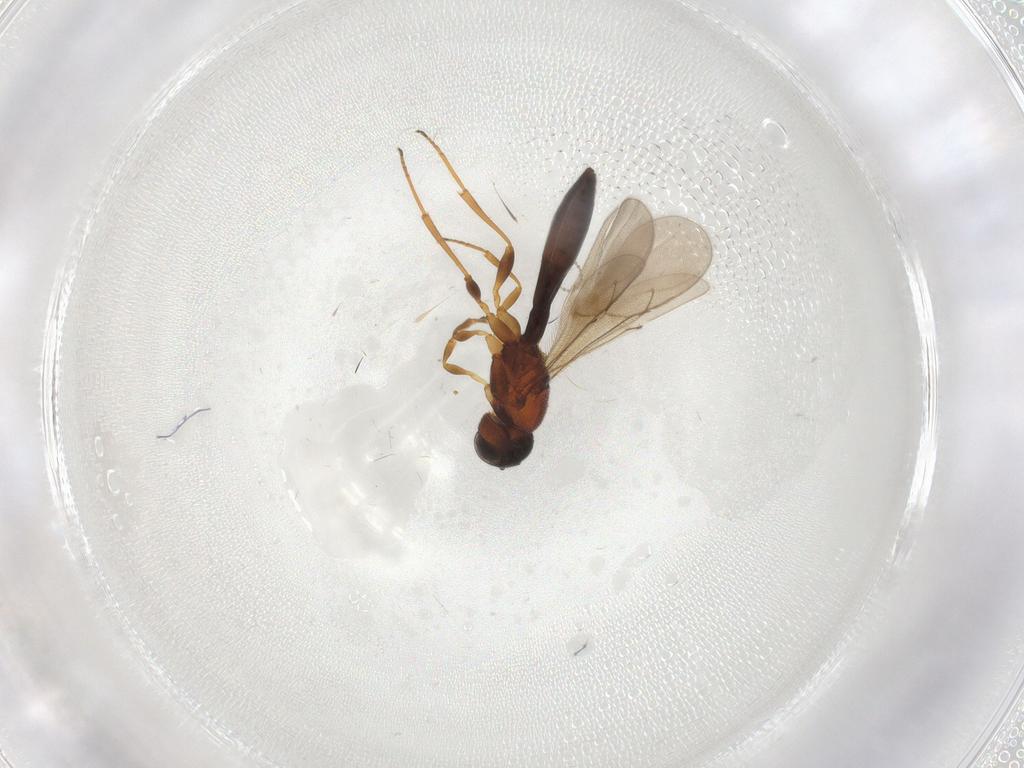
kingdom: Animalia
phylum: Arthropoda
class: Insecta
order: Hymenoptera
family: Scelionidae
